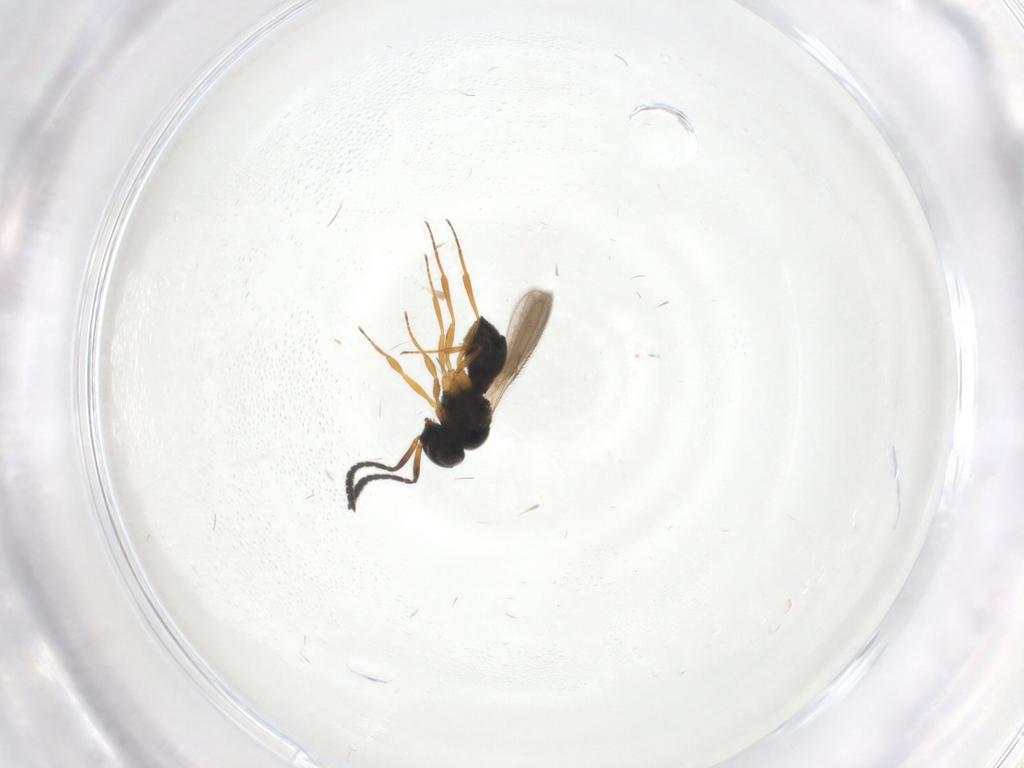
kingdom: Animalia
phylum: Arthropoda
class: Insecta
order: Hymenoptera
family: Scelionidae
